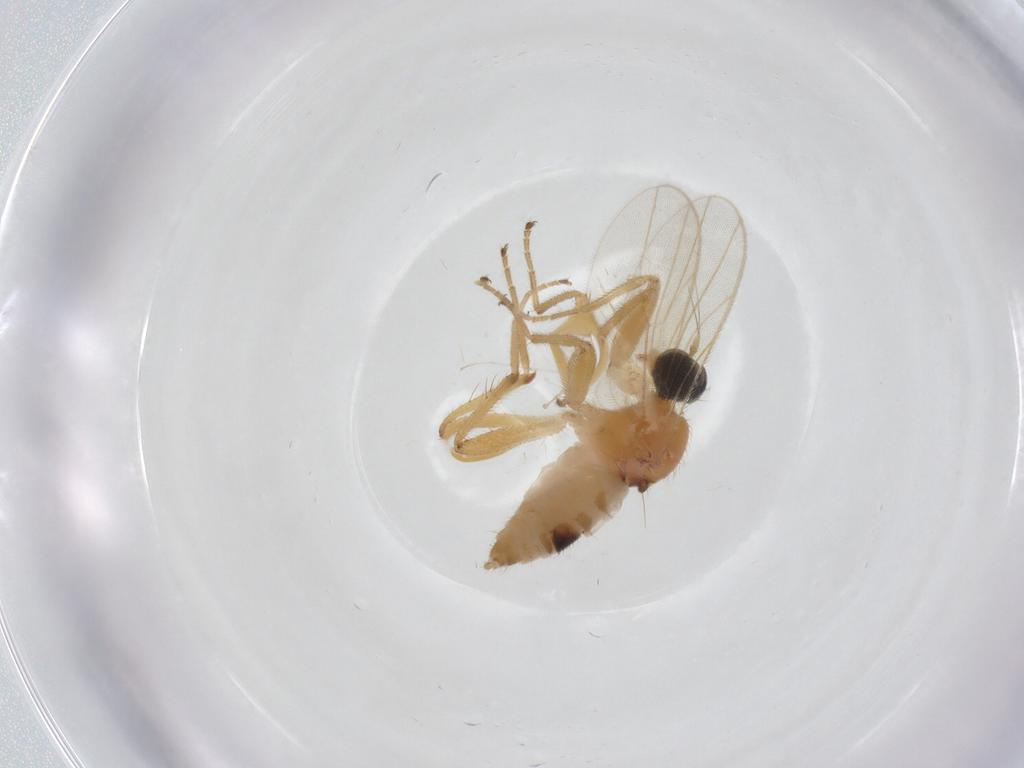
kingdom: Animalia
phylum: Arthropoda
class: Insecta
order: Diptera
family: Hybotidae
